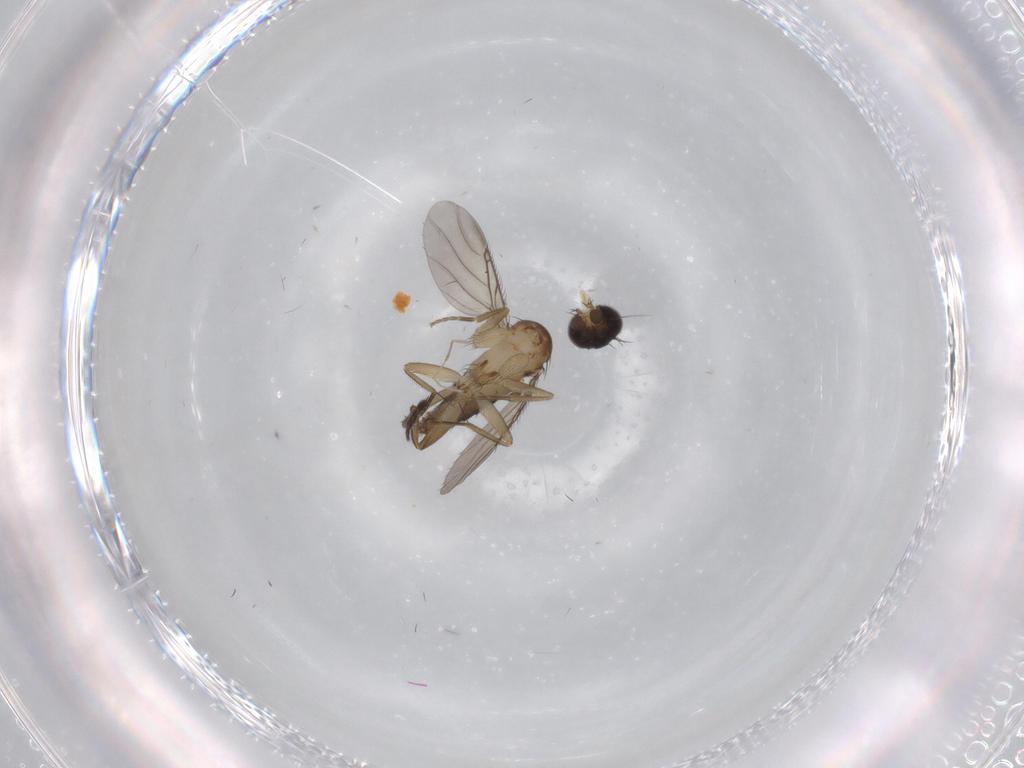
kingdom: Animalia
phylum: Arthropoda
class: Insecta
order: Diptera
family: Phoridae
